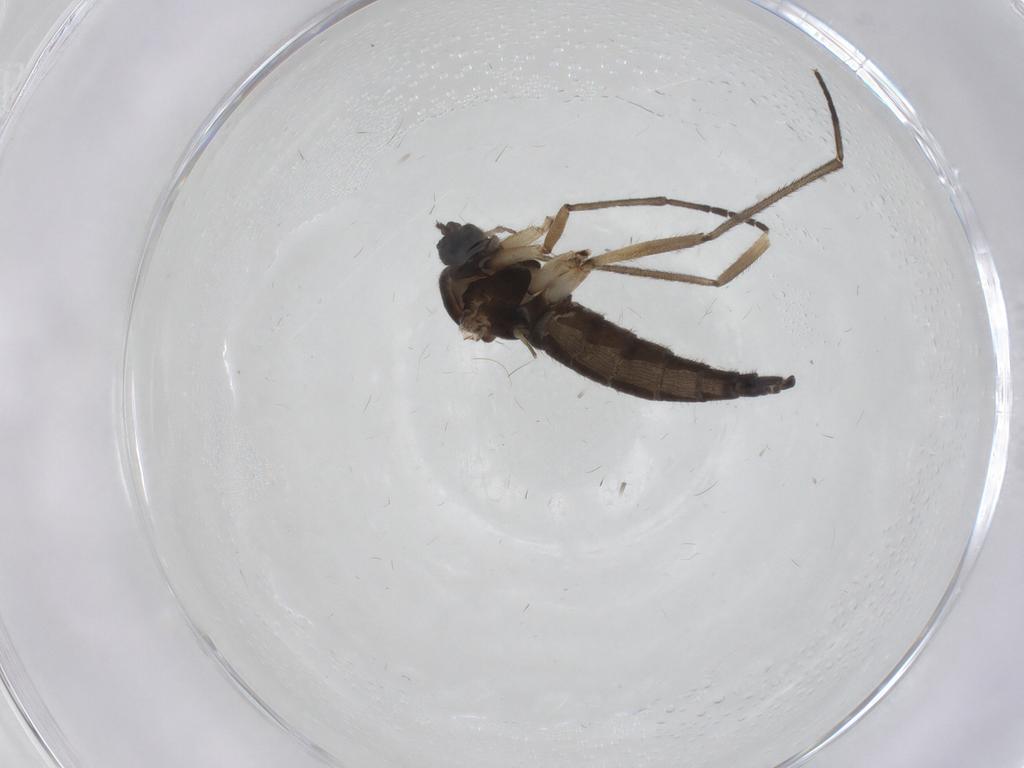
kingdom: Animalia
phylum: Arthropoda
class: Insecta
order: Diptera
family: Sciaridae
